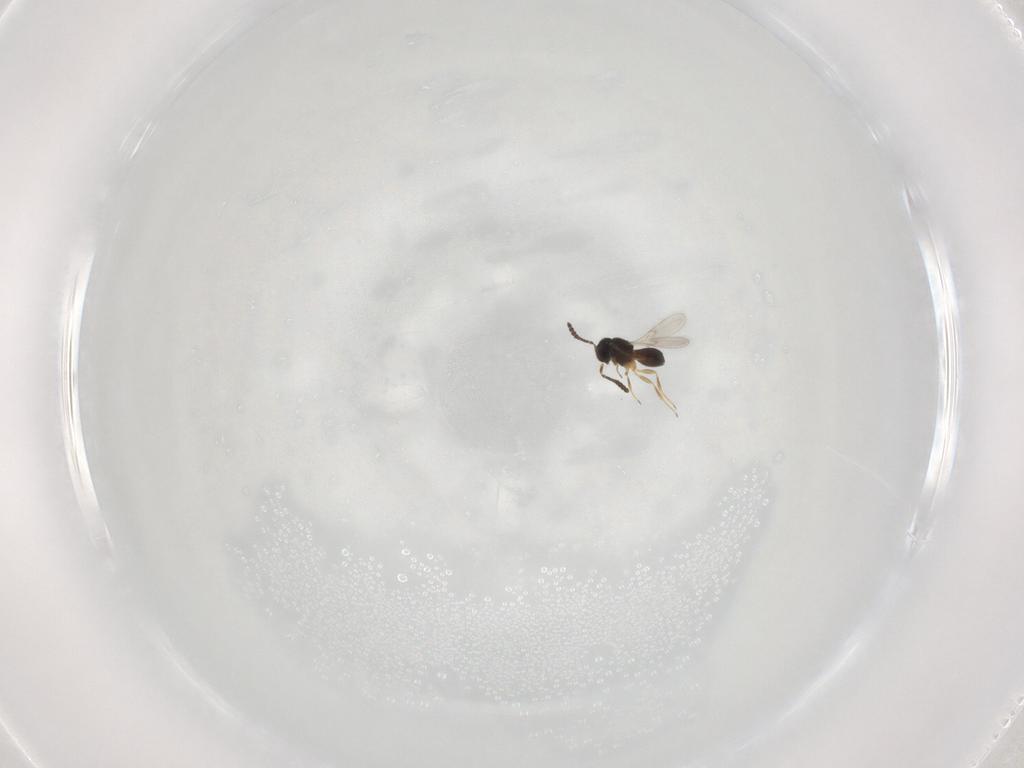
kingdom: Animalia
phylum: Arthropoda
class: Insecta
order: Hymenoptera
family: Scelionidae
